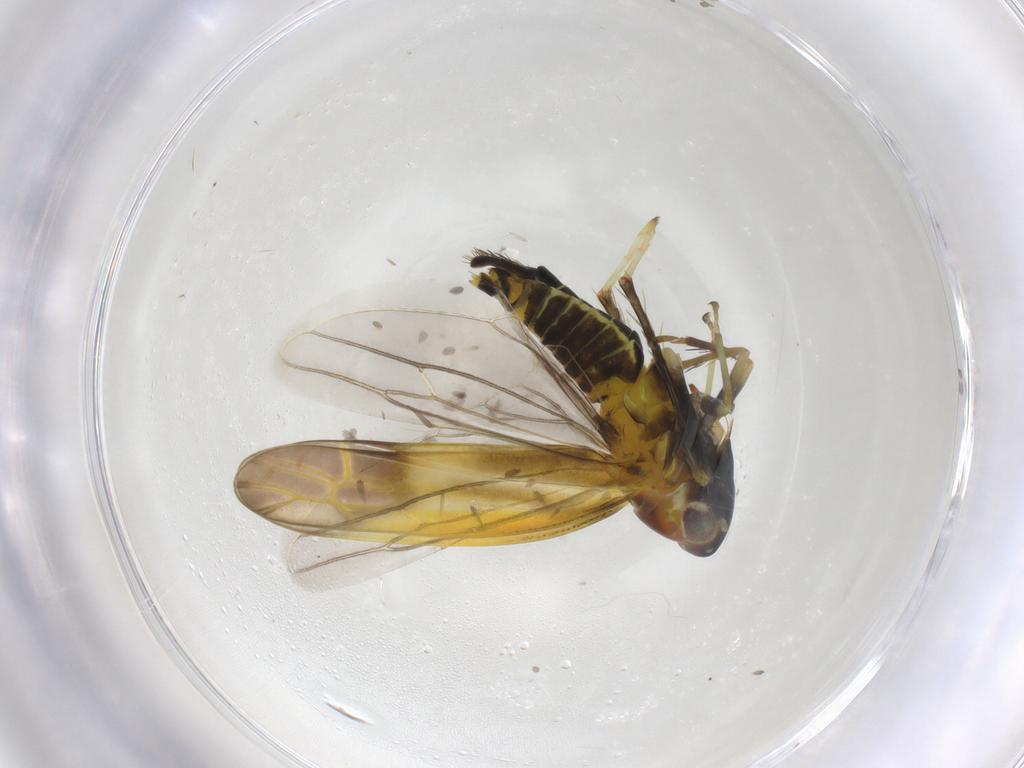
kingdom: Animalia
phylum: Arthropoda
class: Insecta
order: Hemiptera
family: Cicadellidae
